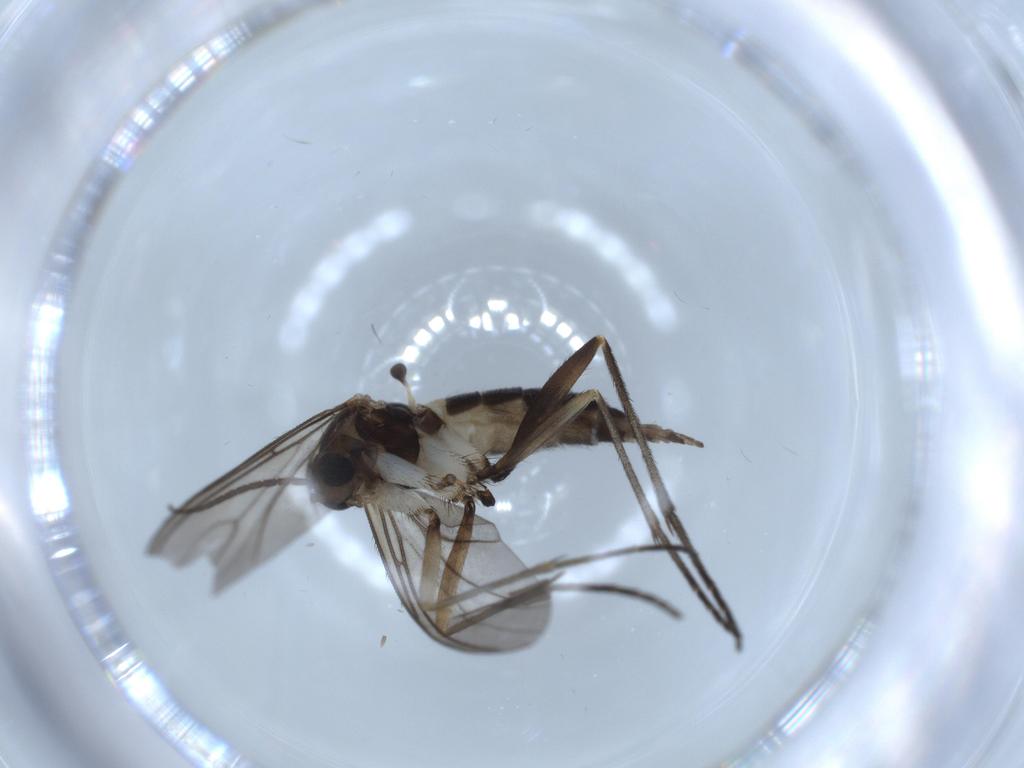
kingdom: Animalia
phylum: Arthropoda
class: Insecta
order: Diptera
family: Sciaridae
